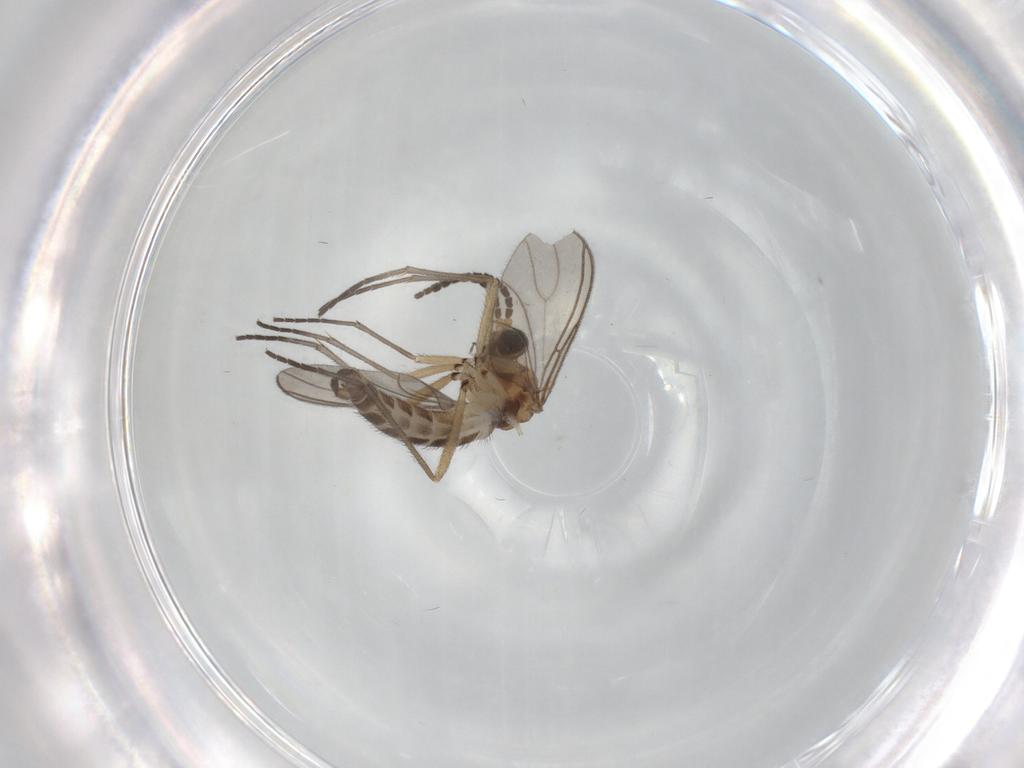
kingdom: Animalia
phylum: Arthropoda
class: Insecta
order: Diptera
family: Sciaridae
